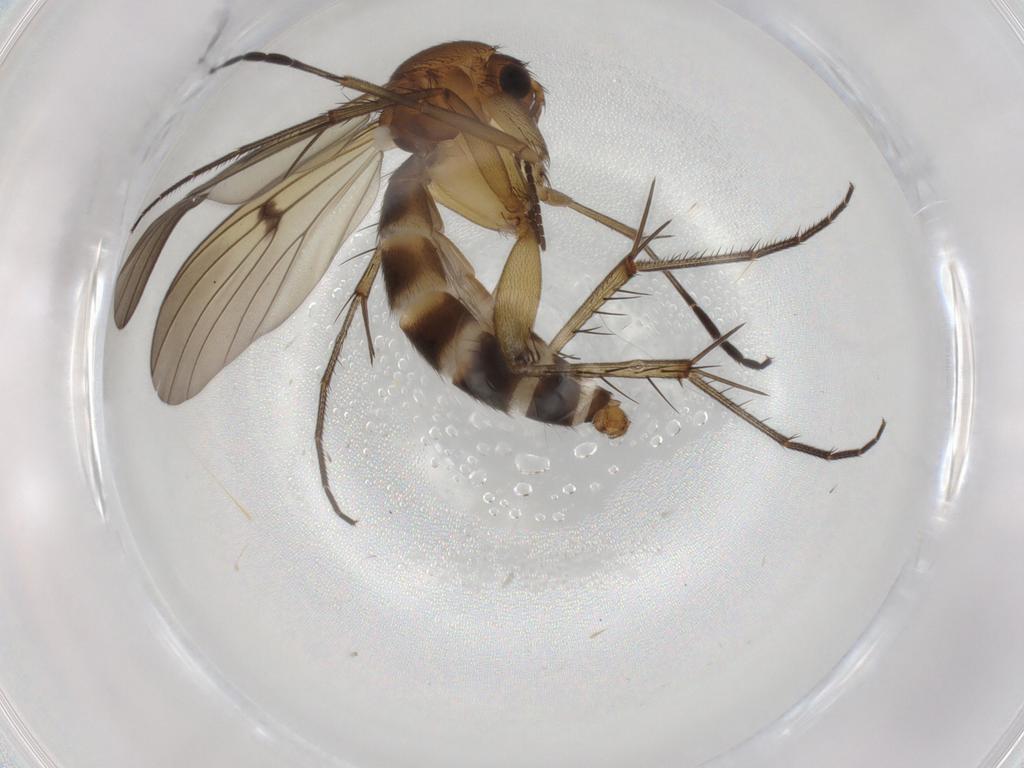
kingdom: Animalia
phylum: Arthropoda
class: Insecta
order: Diptera
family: Mycetophilidae
